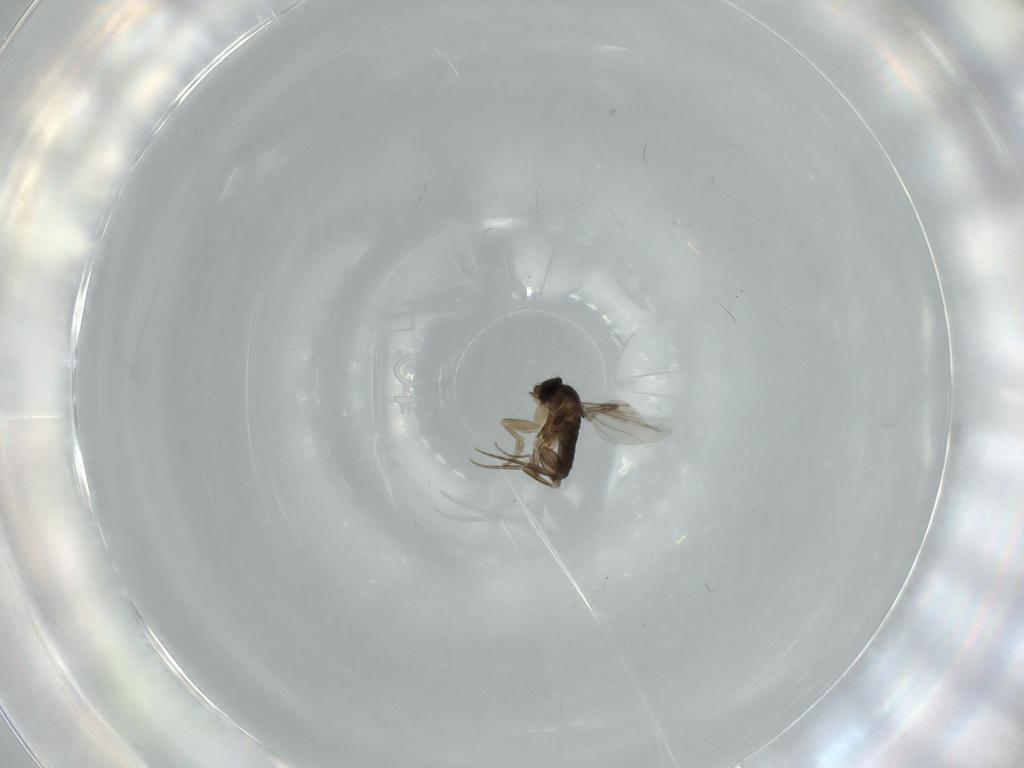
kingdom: Animalia
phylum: Arthropoda
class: Insecta
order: Diptera
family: Phoridae
